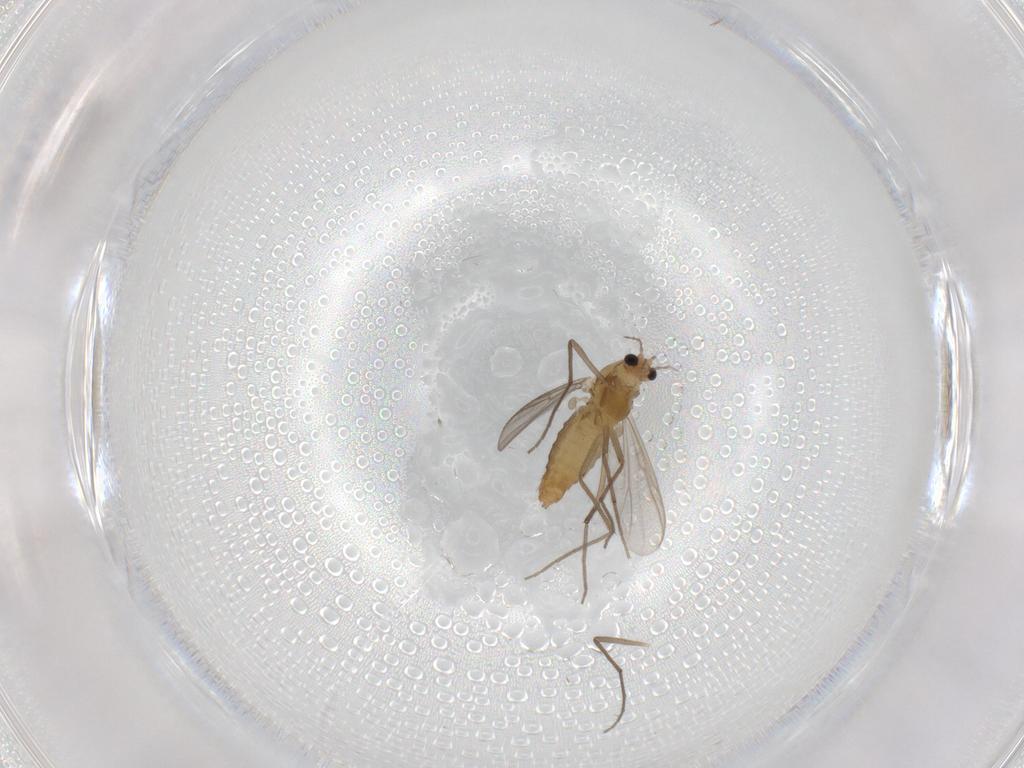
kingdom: Animalia
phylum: Arthropoda
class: Insecta
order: Diptera
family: Chironomidae
